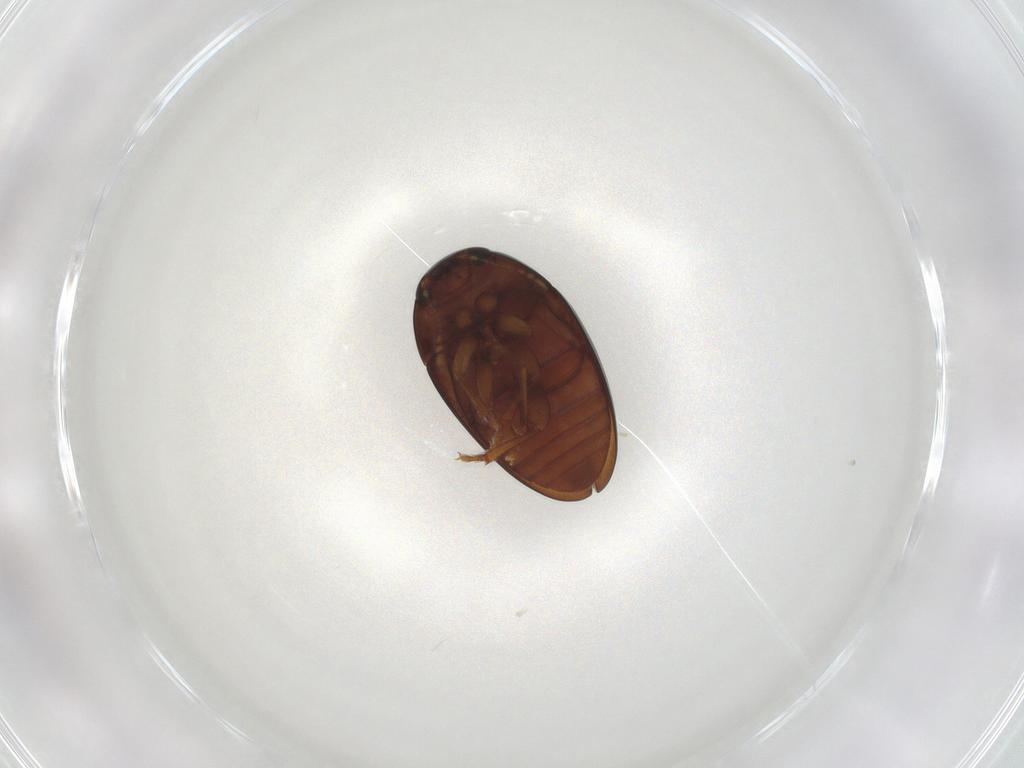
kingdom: Animalia
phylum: Arthropoda
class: Insecta
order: Coleoptera
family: Phalacridae
